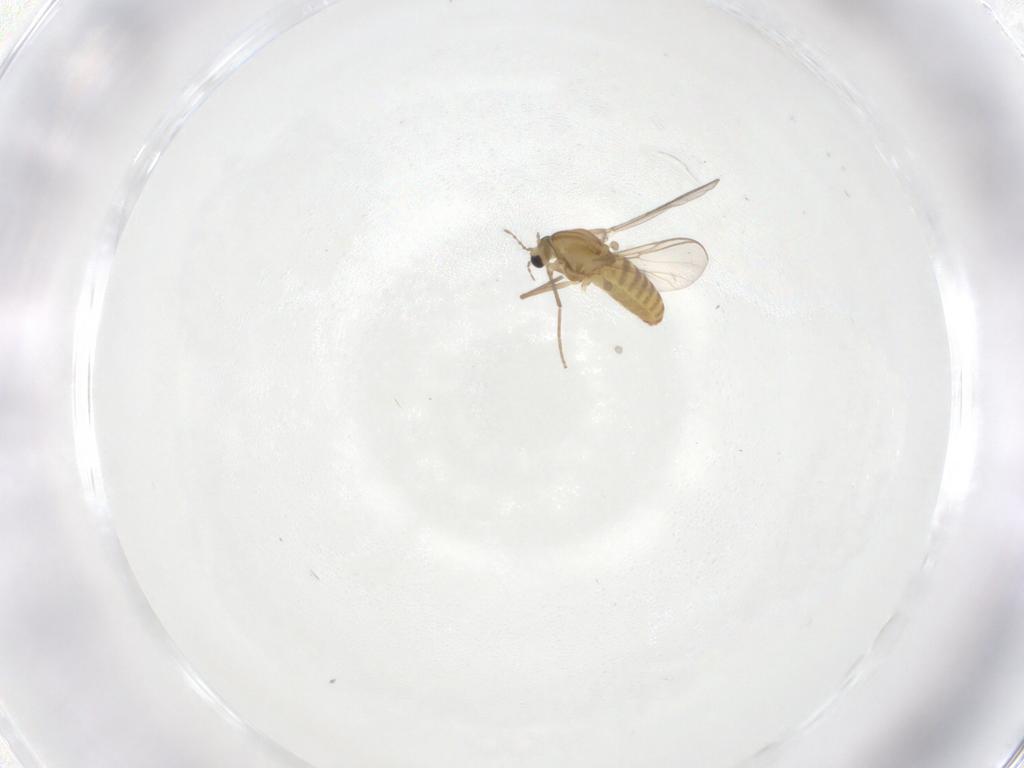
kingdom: Animalia
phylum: Arthropoda
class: Insecta
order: Diptera
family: Chironomidae
